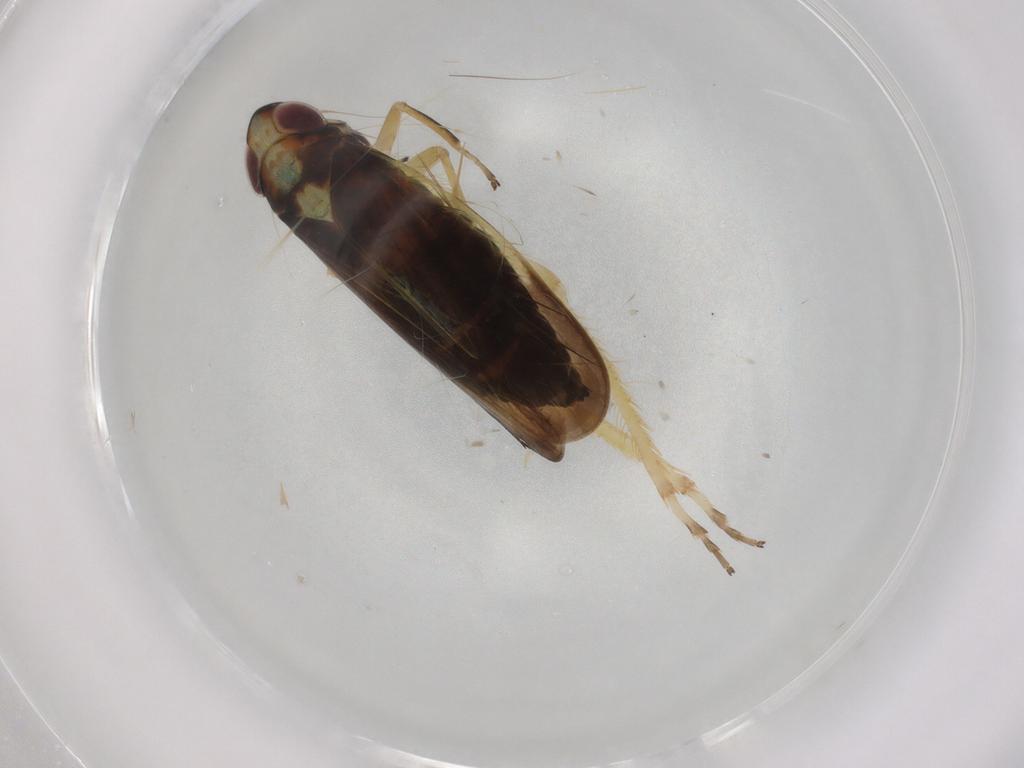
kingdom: Animalia
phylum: Arthropoda
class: Insecta
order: Hemiptera
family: Cicadellidae
